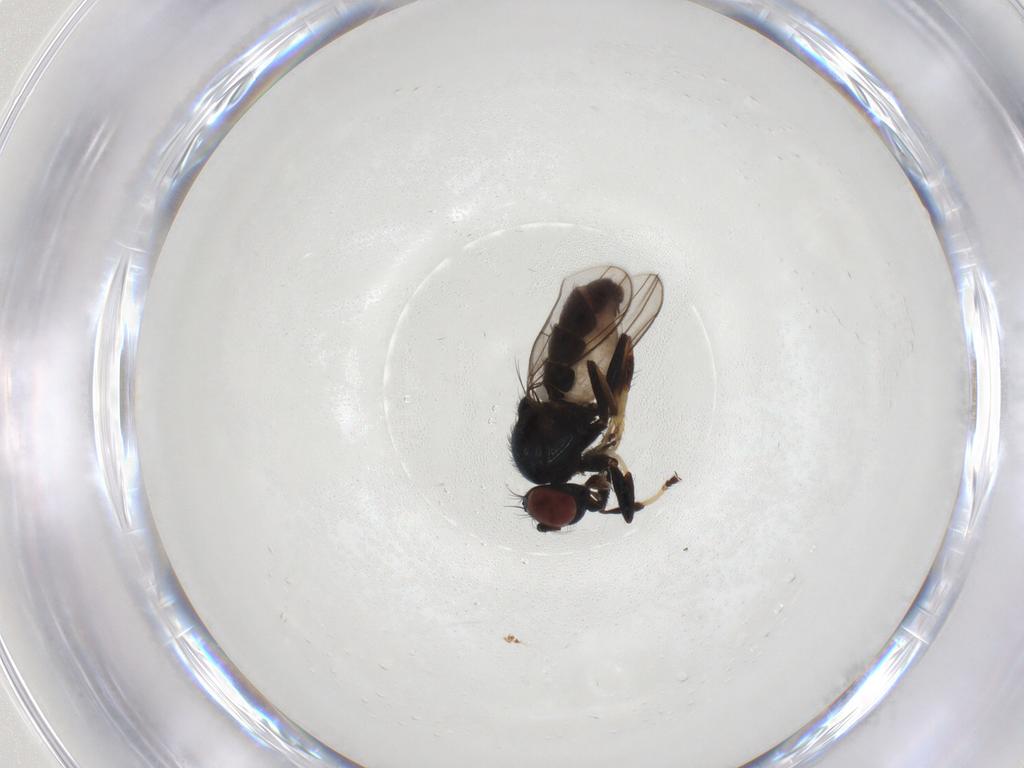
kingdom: Animalia
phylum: Arthropoda
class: Insecta
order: Diptera
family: Ephydridae
